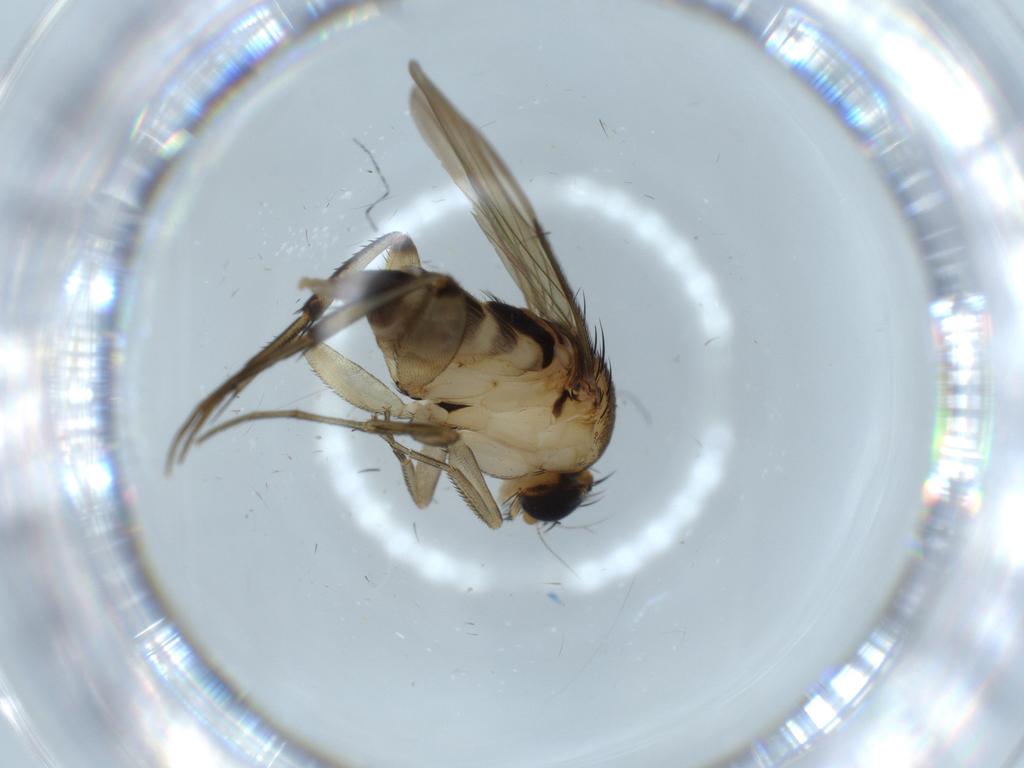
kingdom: Animalia
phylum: Arthropoda
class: Insecta
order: Diptera
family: Phoridae
